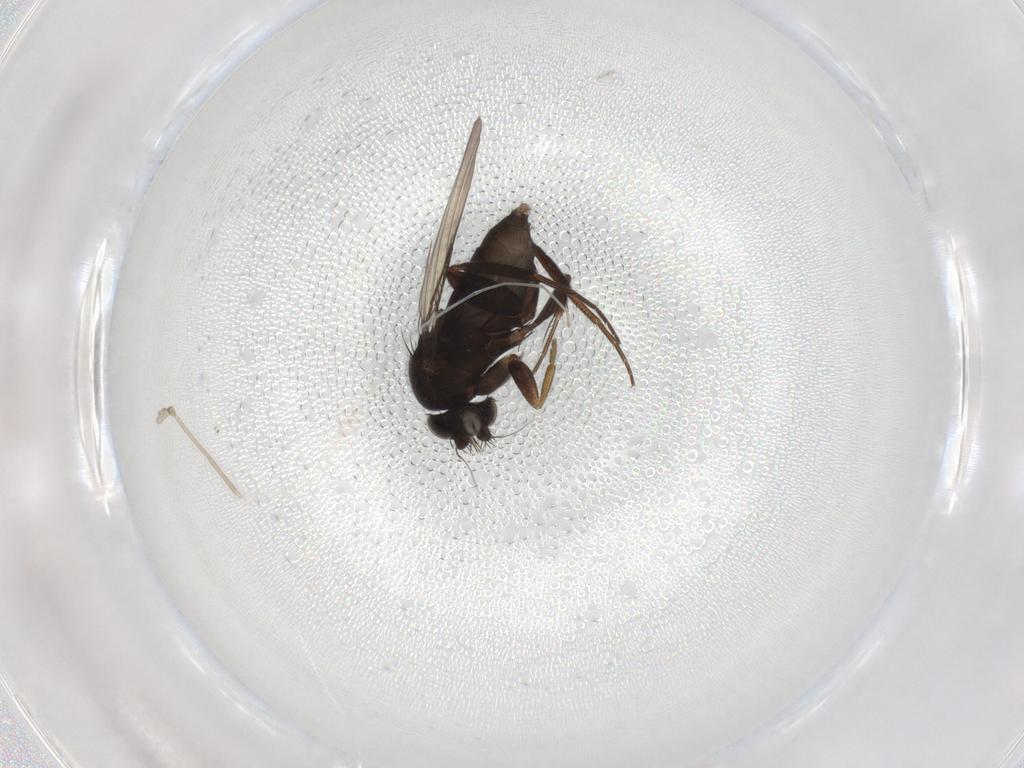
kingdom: Animalia
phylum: Arthropoda
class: Insecta
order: Diptera
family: Phoridae
